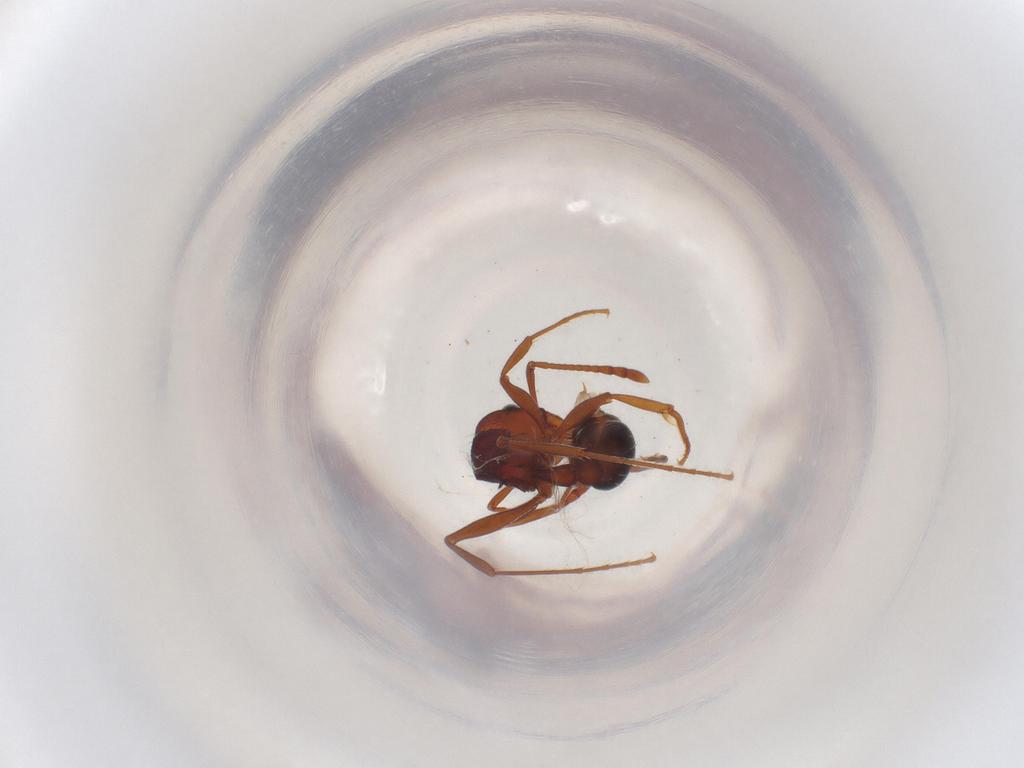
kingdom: Animalia
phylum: Arthropoda
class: Insecta
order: Hymenoptera
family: Formicidae
